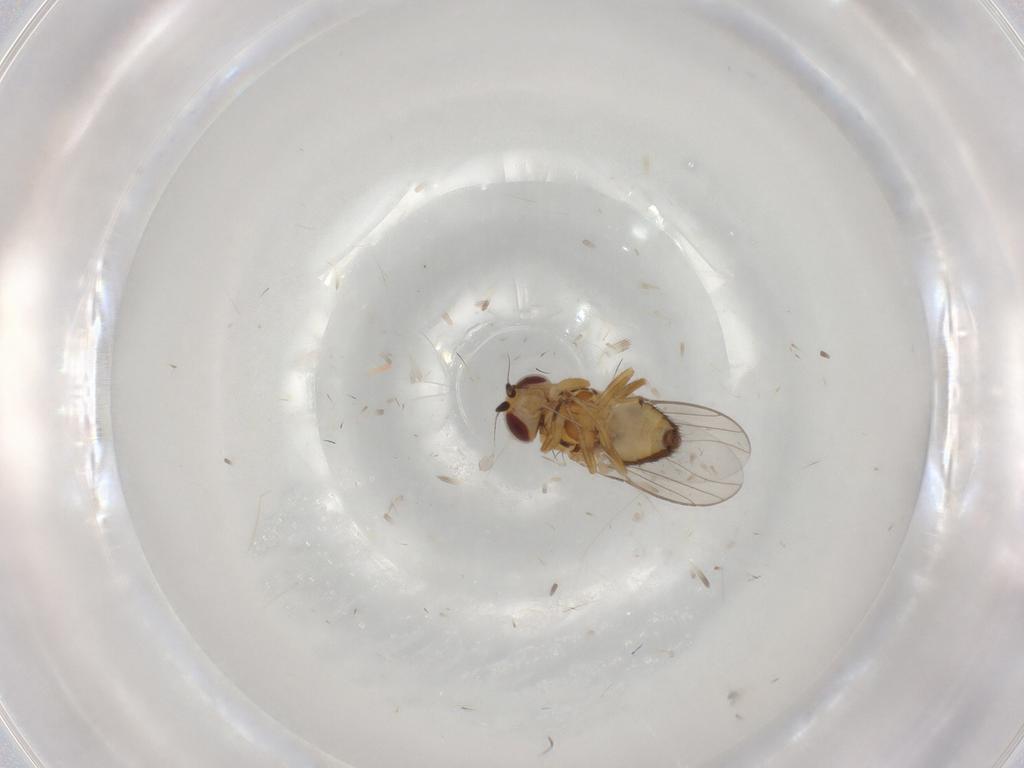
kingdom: Animalia
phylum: Arthropoda
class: Insecta
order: Diptera
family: Chloropidae
